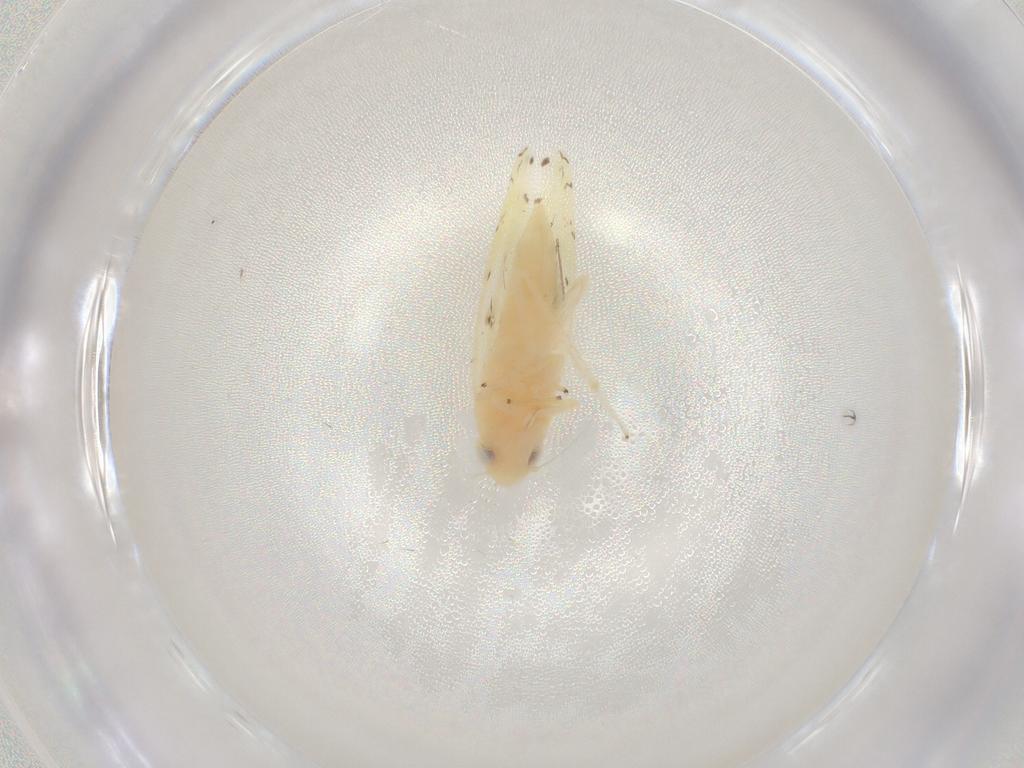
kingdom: Animalia
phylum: Arthropoda
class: Insecta
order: Hemiptera
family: Cicadellidae
